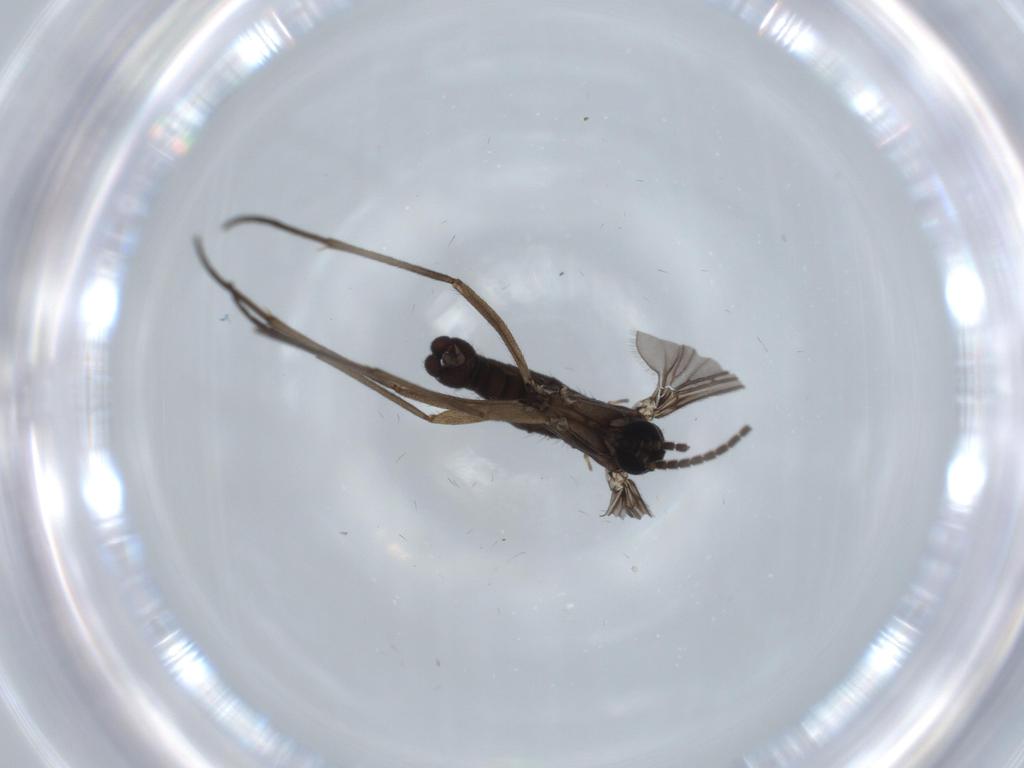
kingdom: Animalia
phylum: Arthropoda
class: Insecta
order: Diptera
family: Sciaridae
